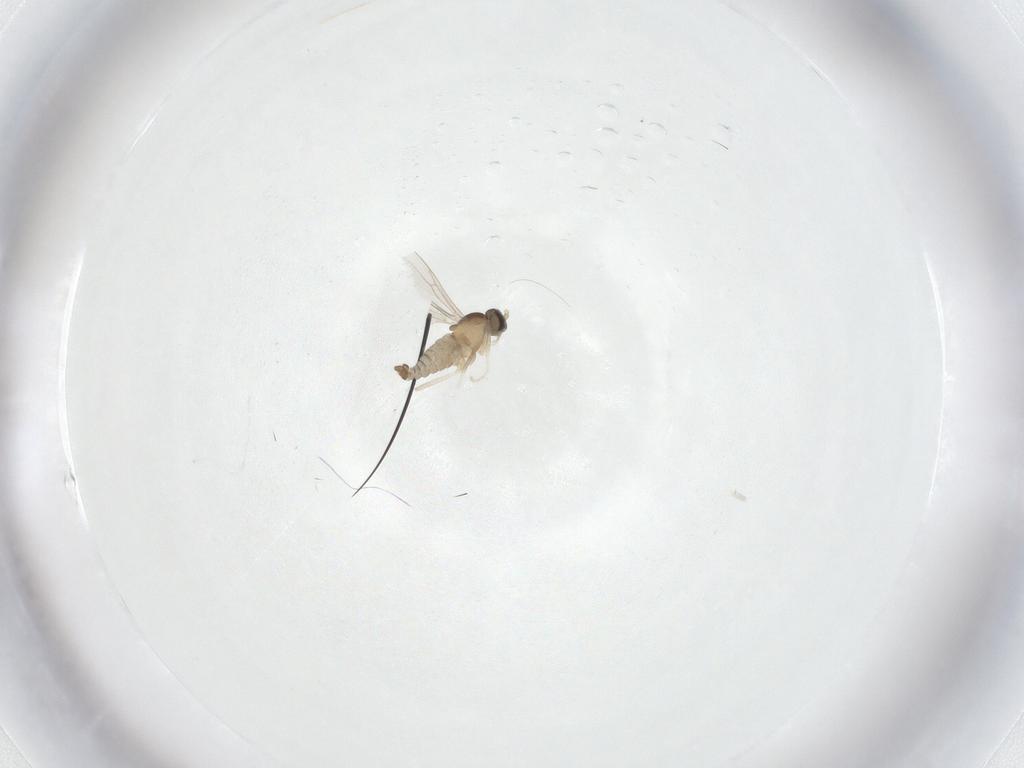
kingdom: Animalia
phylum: Arthropoda
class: Insecta
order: Diptera
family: Cecidomyiidae
